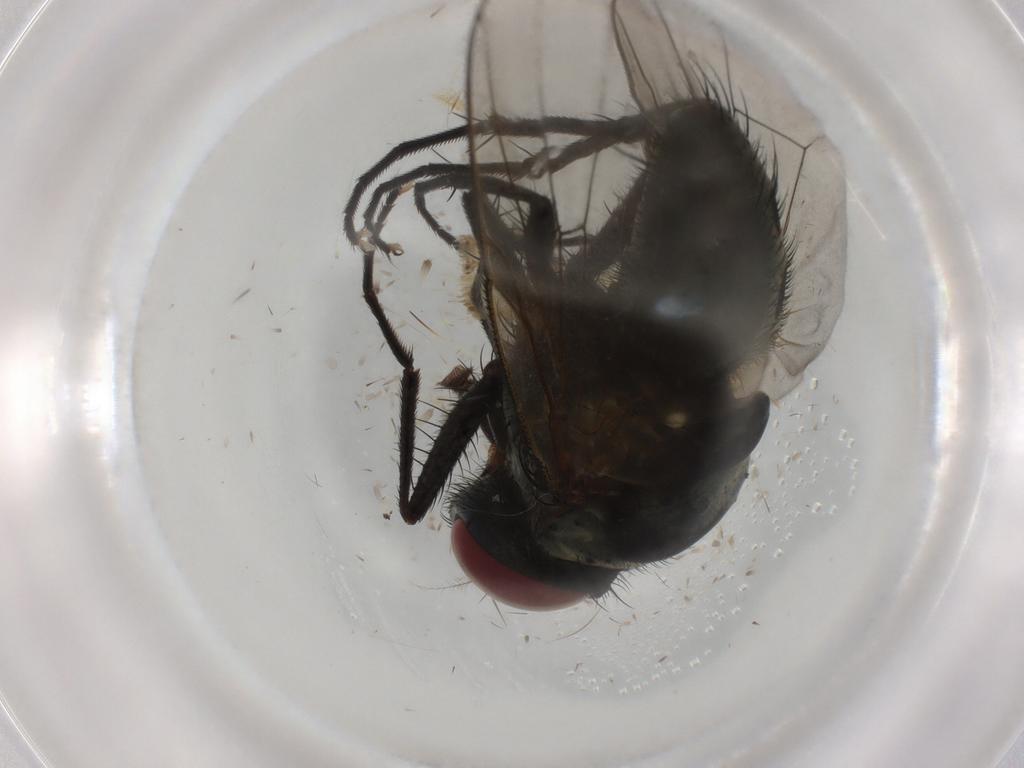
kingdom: Animalia
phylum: Arthropoda
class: Insecta
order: Diptera
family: Muscidae
